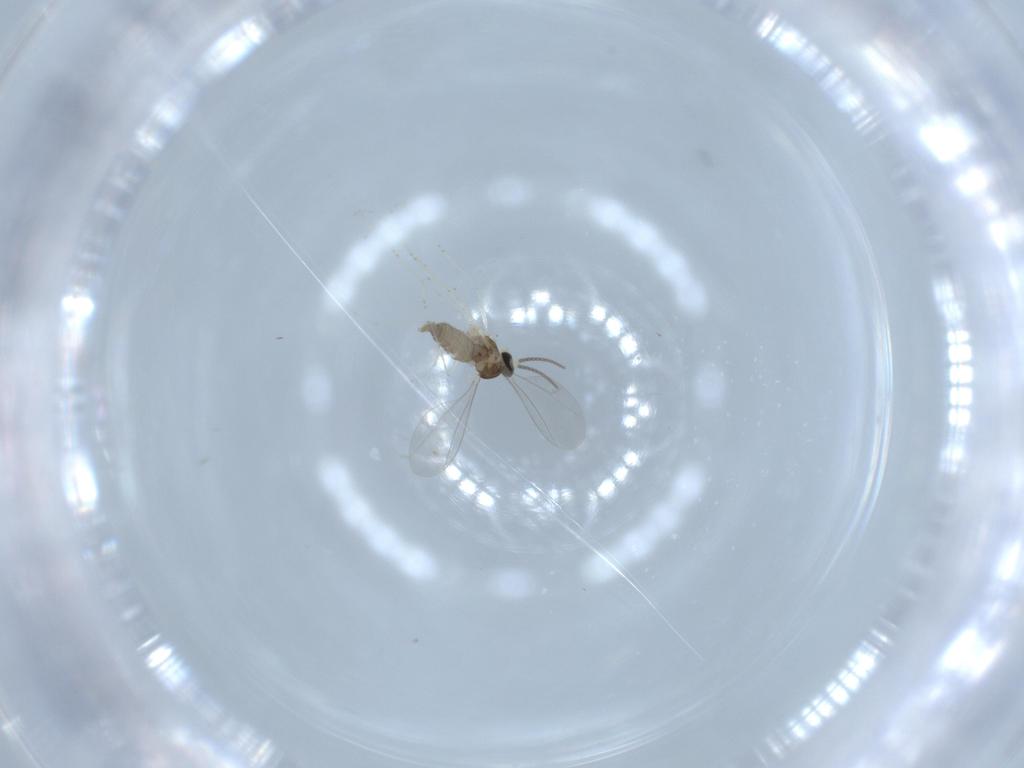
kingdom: Animalia
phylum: Arthropoda
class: Insecta
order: Diptera
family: Cecidomyiidae
